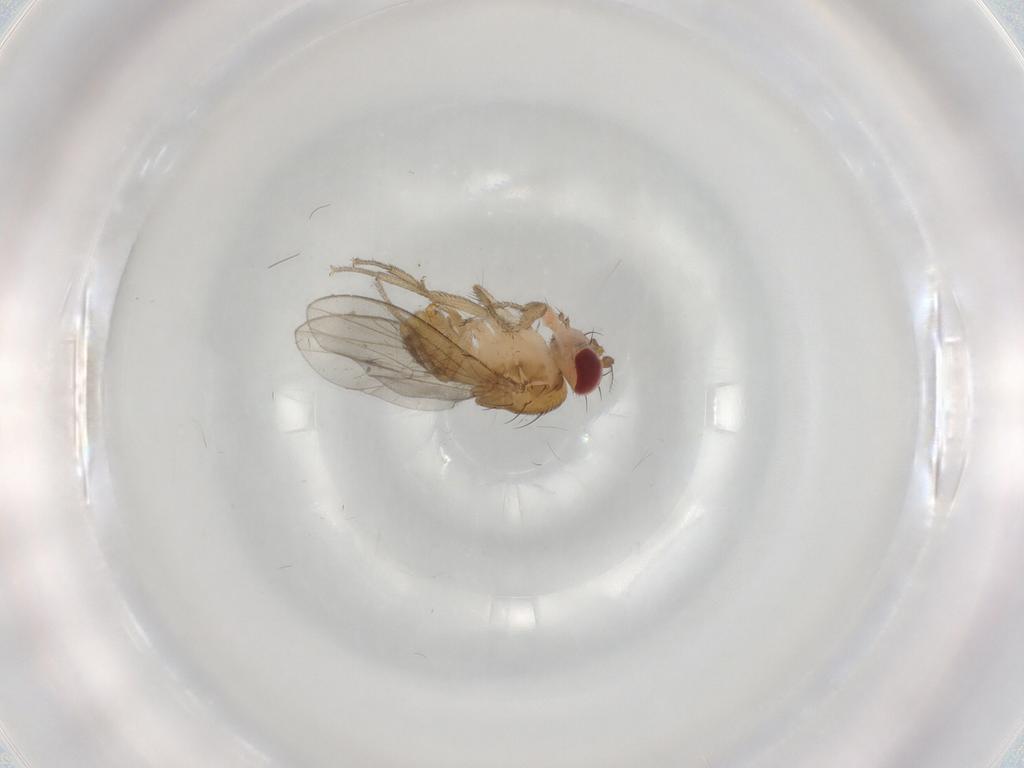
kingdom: Animalia
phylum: Arthropoda
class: Insecta
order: Diptera
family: Drosophilidae
